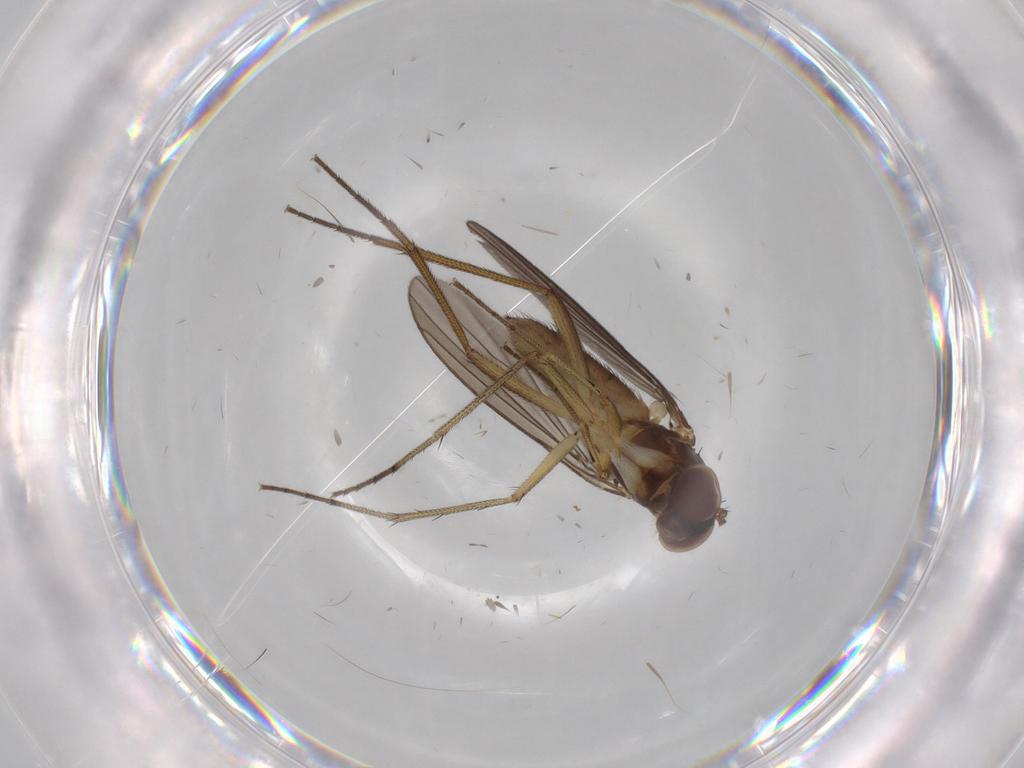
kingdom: Animalia
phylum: Arthropoda
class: Insecta
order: Diptera
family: Dolichopodidae
